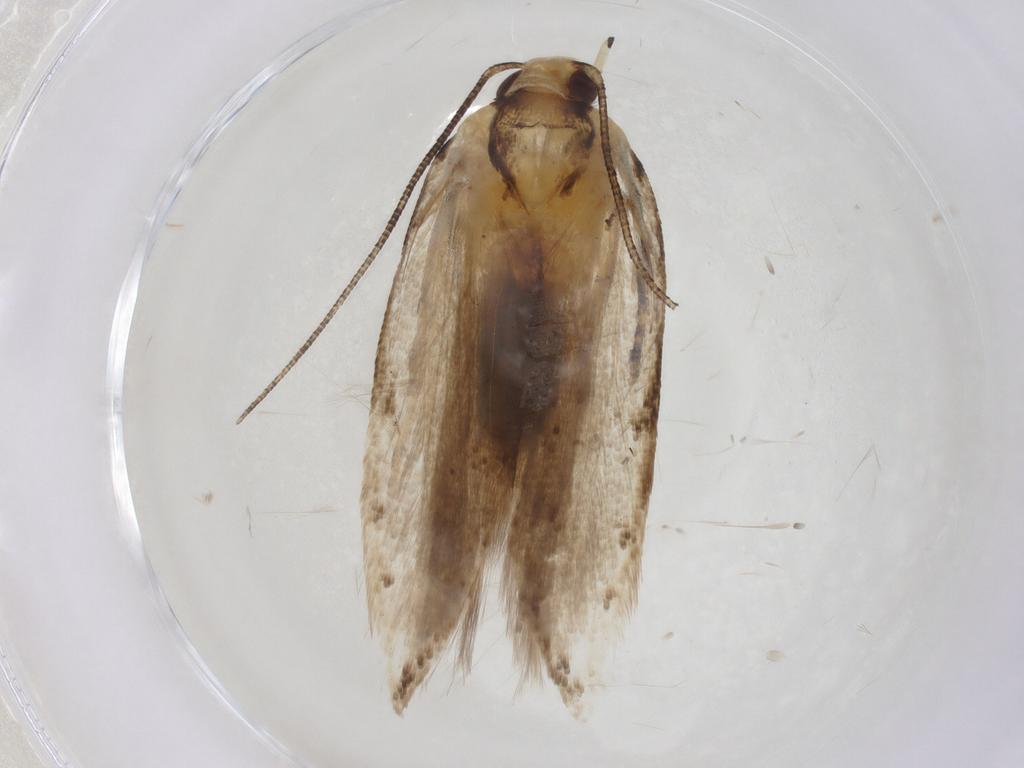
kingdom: Animalia
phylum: Arthropoda
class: Insecta
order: Lepidoptera
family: Gelechiidae
